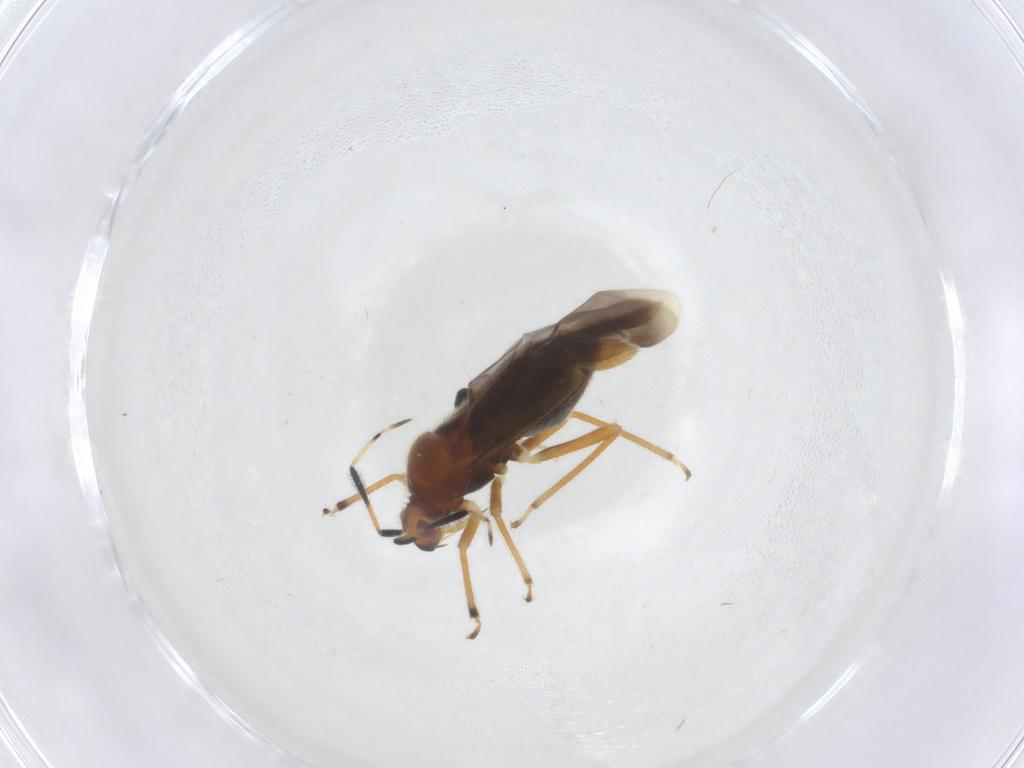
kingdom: Animalia
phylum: Arthropoda
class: Insecta
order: Hemiptera
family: Miridae
